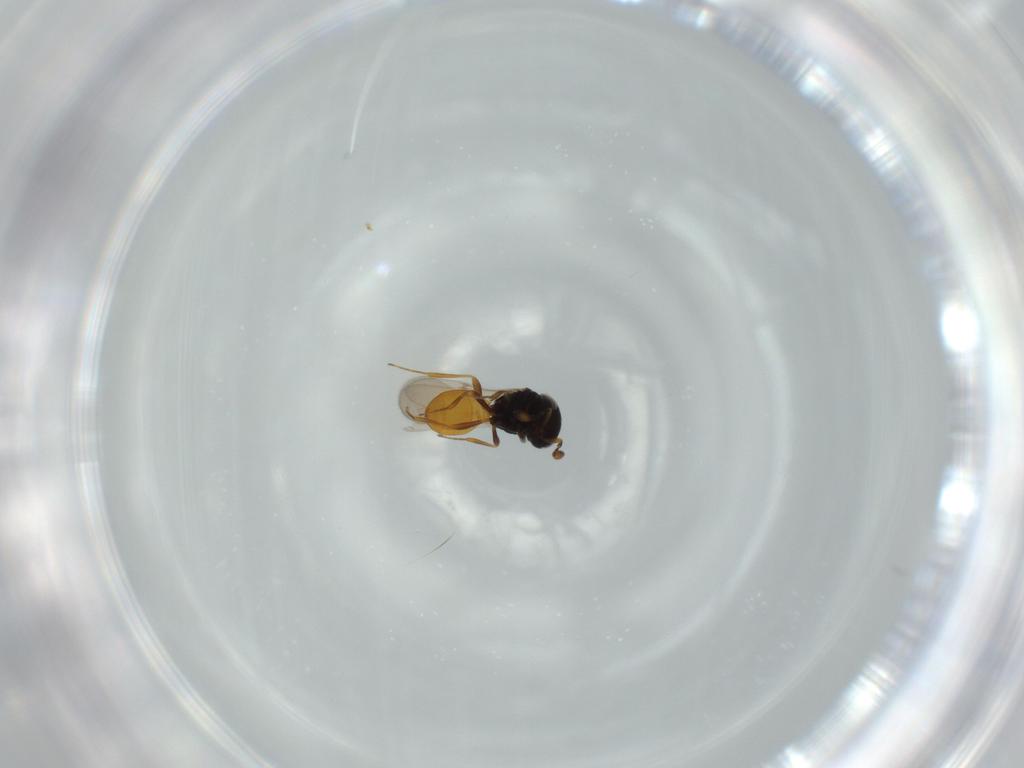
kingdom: Animalia
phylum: Arthropoda
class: Insecta
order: Hymenoptera
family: Scelionidae
